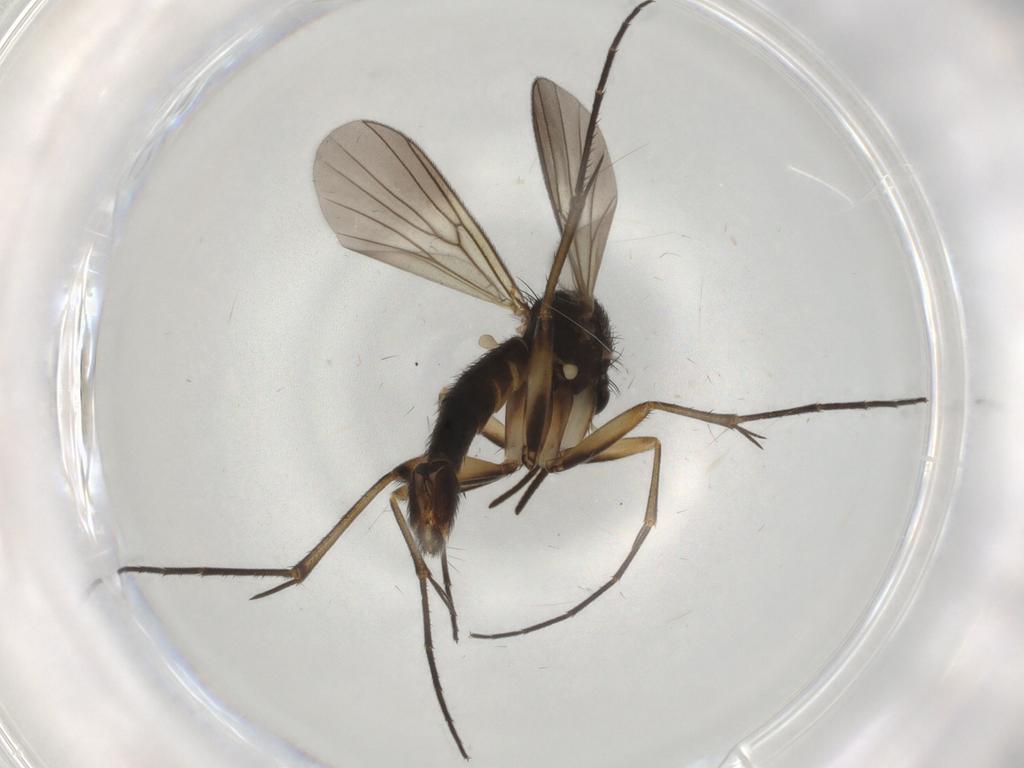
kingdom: Animalia
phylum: Arthropoda
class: Insecta
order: Diptera
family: Mycetophilidae
